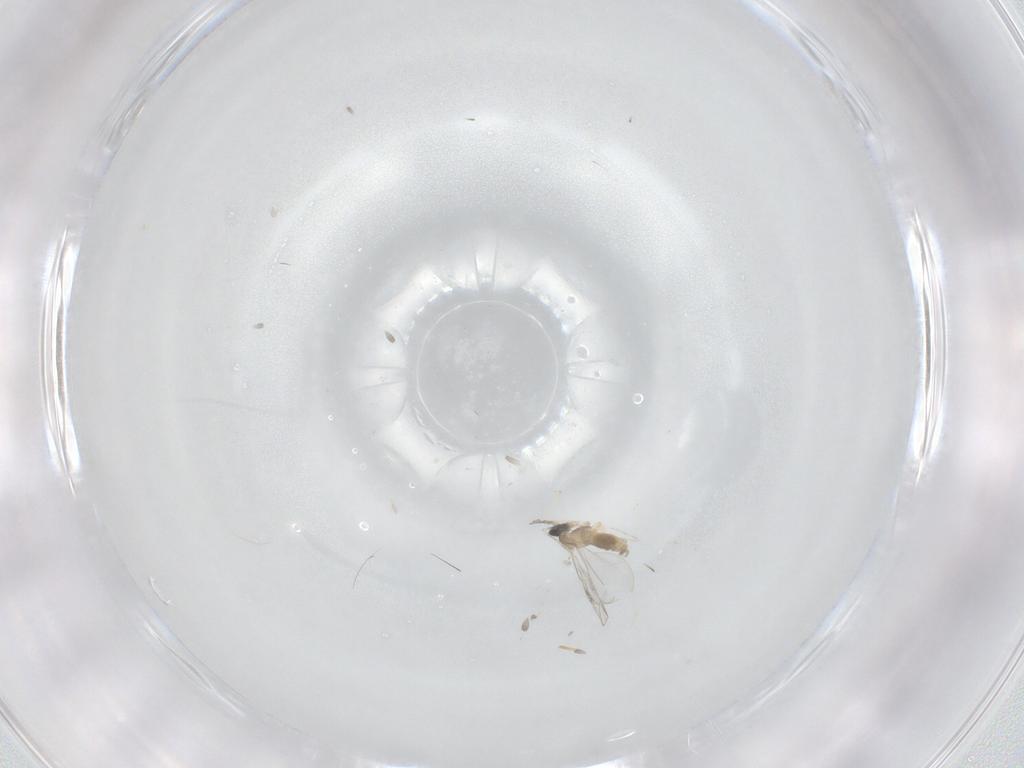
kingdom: Animalia
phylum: Arthropoda
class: Insecta
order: Diptera
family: Cecidomyiidae
